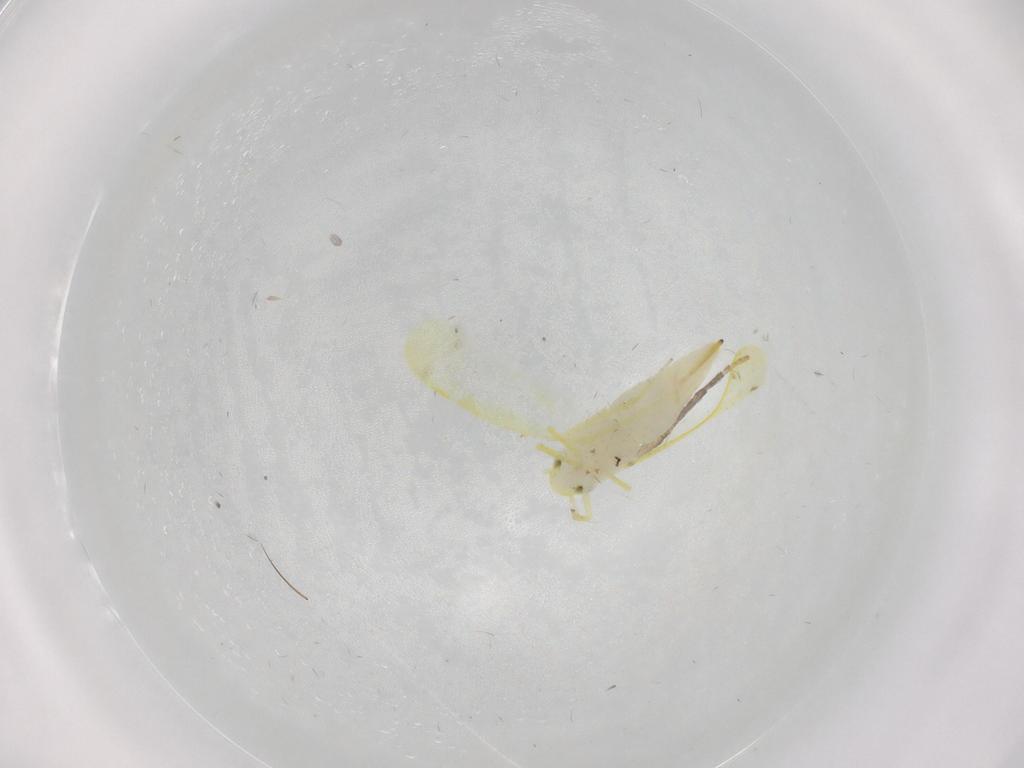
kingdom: Animalia
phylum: Arthropoda
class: Insecta
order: Hemiptera
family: Cicadellidae
